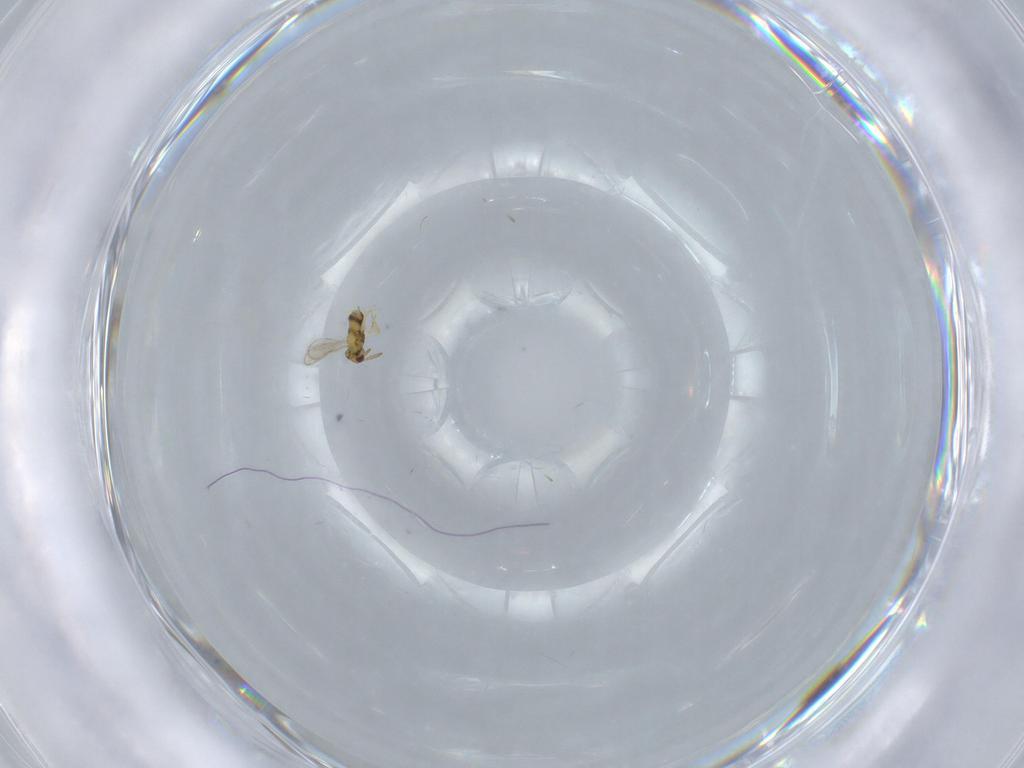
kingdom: Animalia
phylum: Arthropoda
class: Insecta
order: Hymenoptera
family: Aphelinidae
